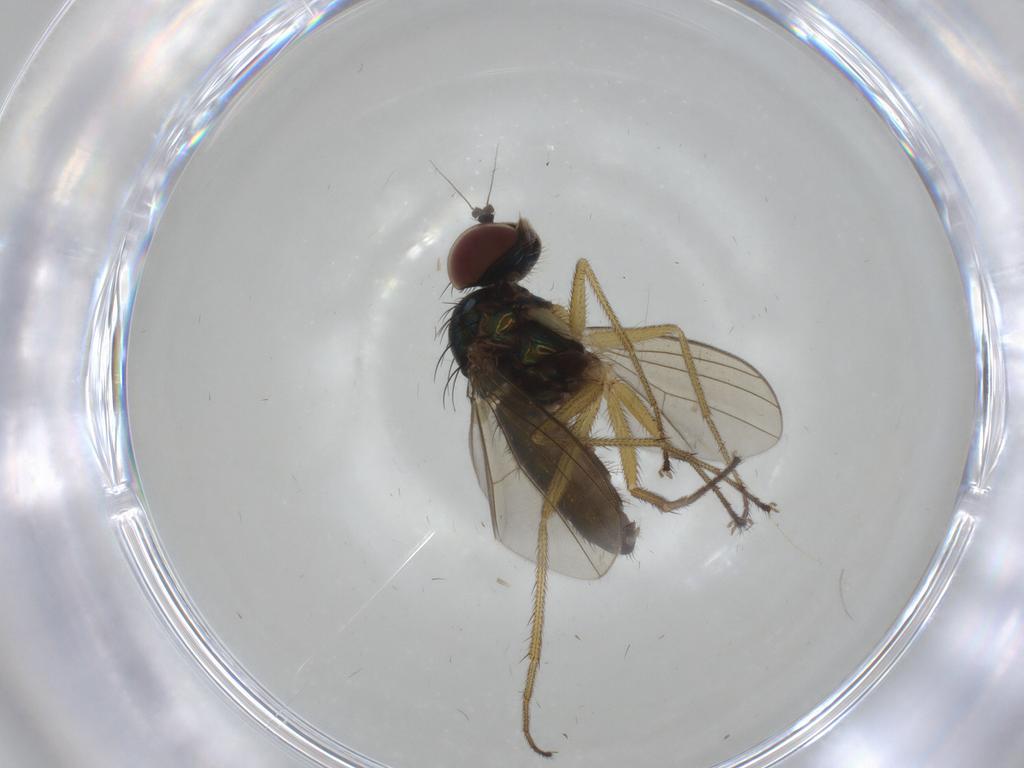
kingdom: Animalia
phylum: Arthropoda
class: Insecta
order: Diptera
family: Dolichopodidae
